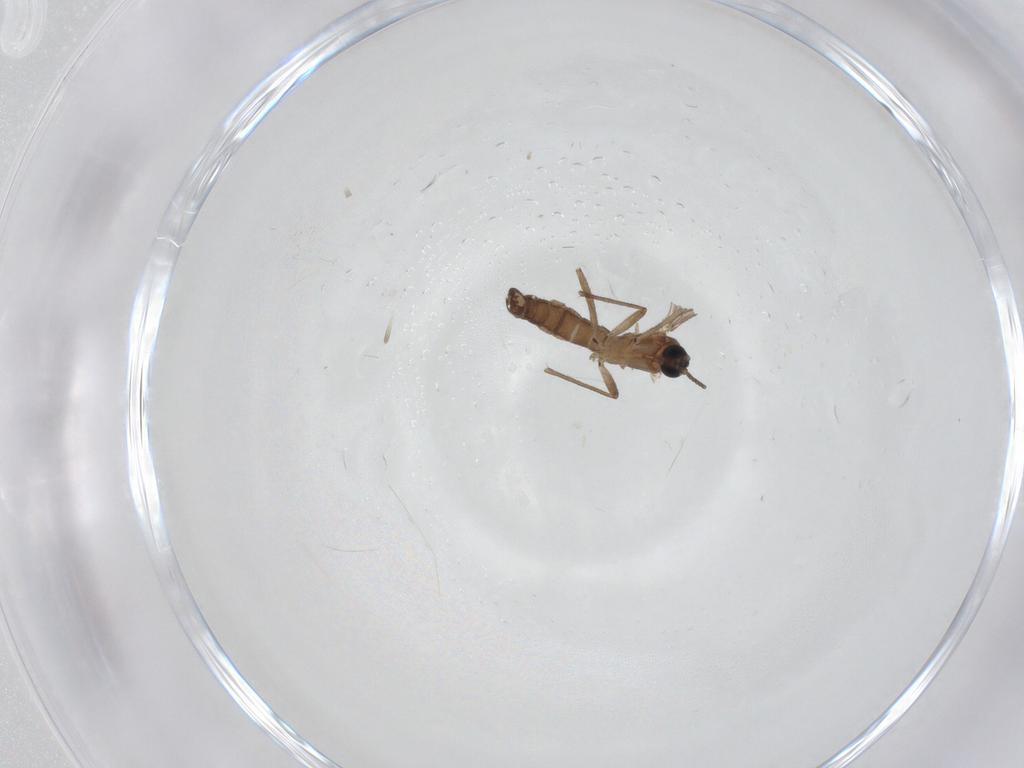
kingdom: Animalia
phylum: Arthropoda
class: Insecta
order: Diptera
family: Sciaridae
